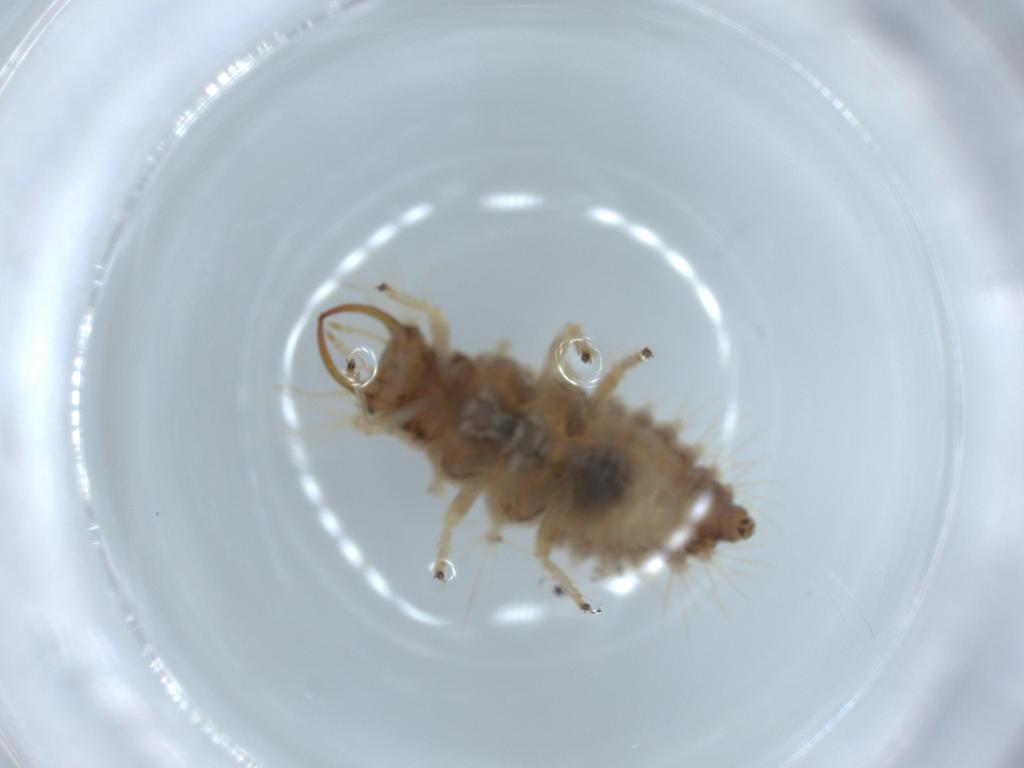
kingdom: Animalia
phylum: Arthropoda
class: Insecta
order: Neuroptera
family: Chrysopidae
